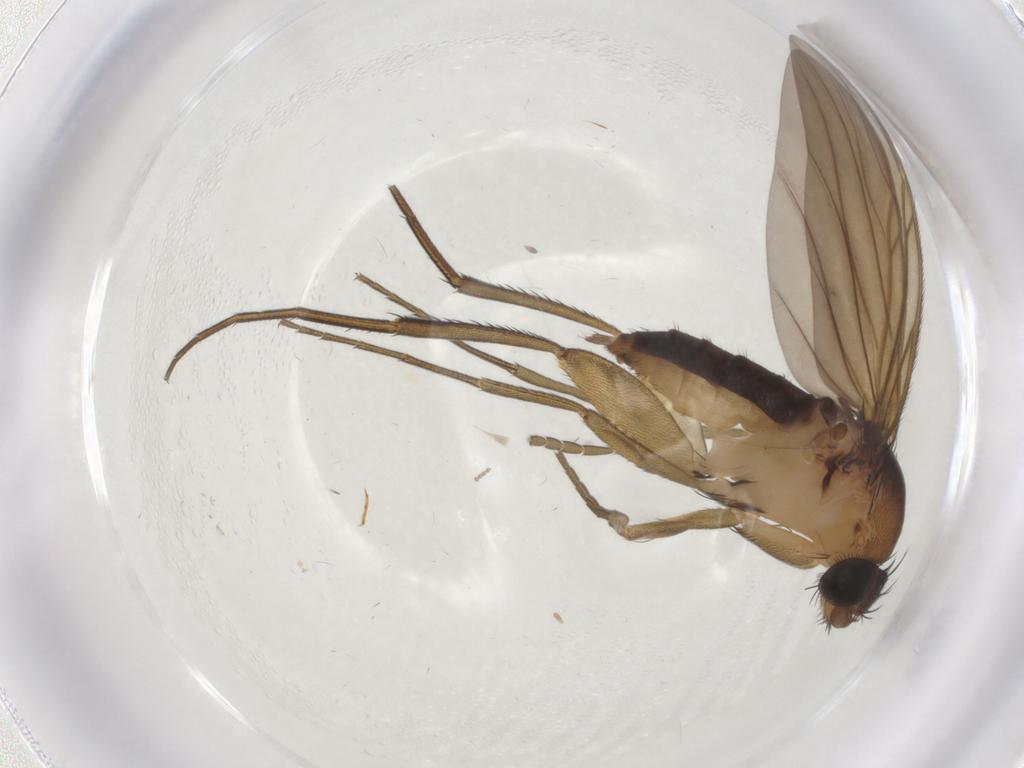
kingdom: Animalia
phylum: Arthropoda
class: Insecta
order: Diptera
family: Phoridae
